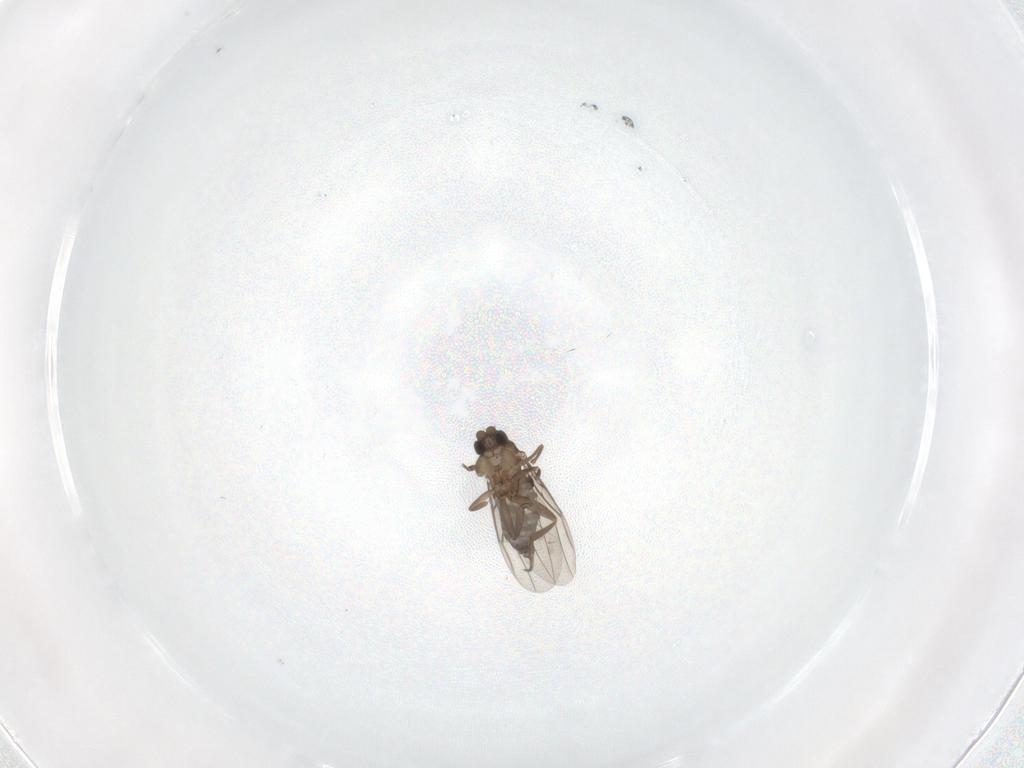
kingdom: Animalia
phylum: Arthropoda
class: Insecta
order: Diptera
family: Phoridae
